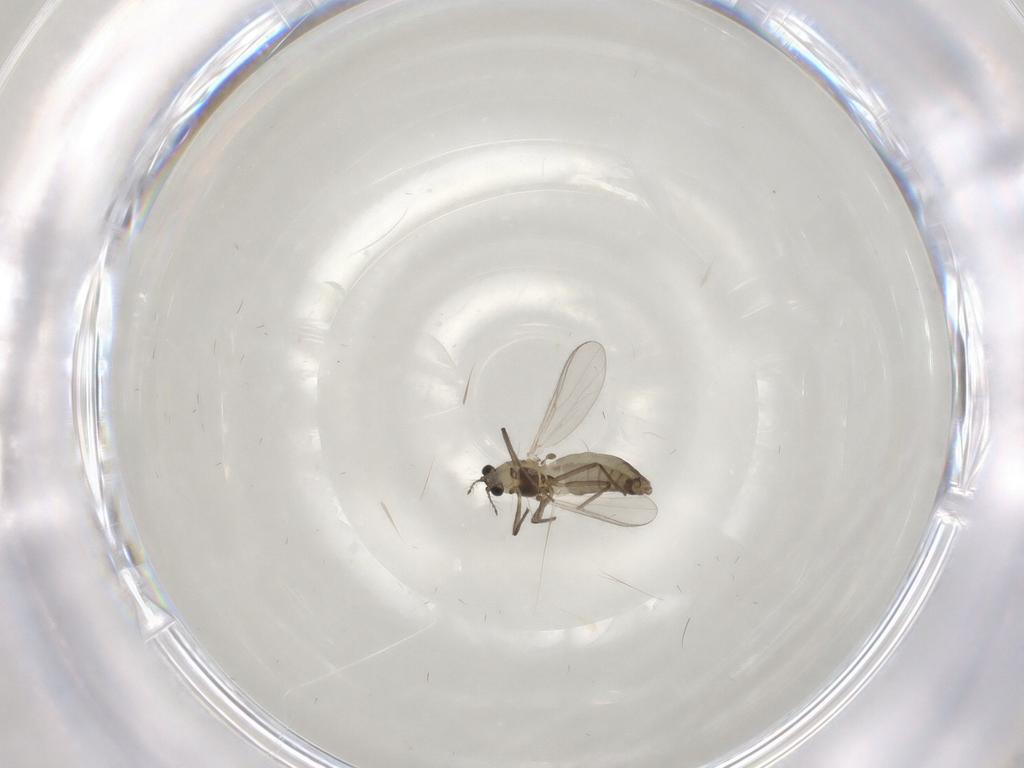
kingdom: Animalia
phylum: Arthropoda
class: Insecta
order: Diptera
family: Chironomidae
